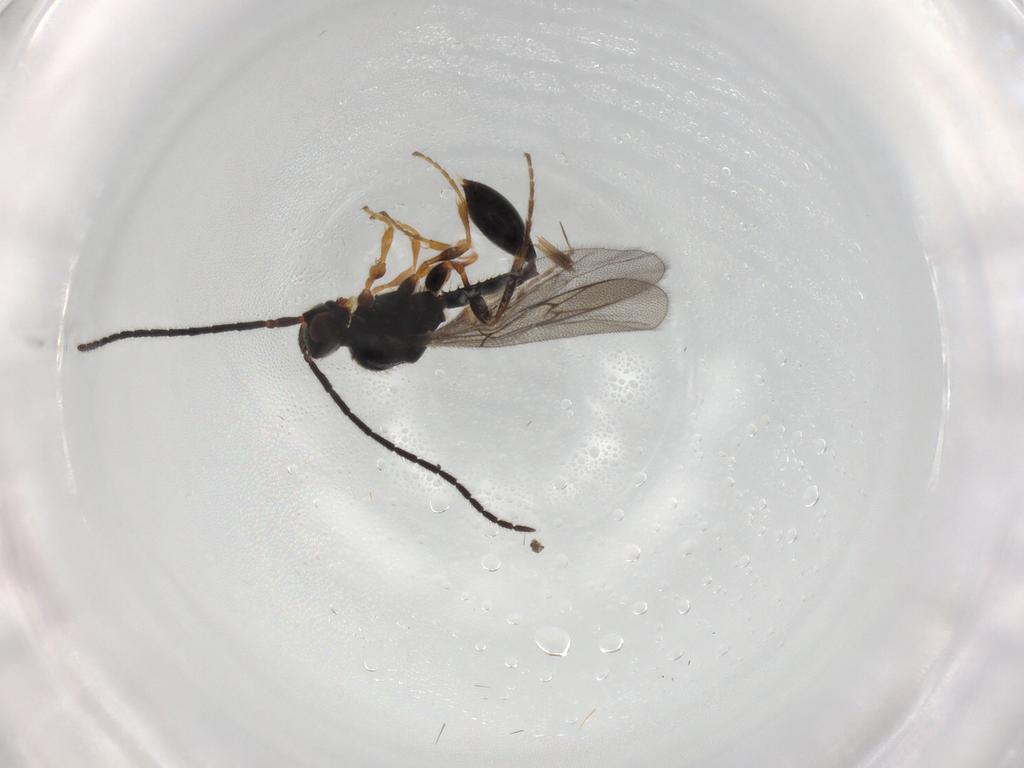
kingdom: Animalia
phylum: Arthropoda
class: Insecta
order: Hymenoptera
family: Diapriidae
